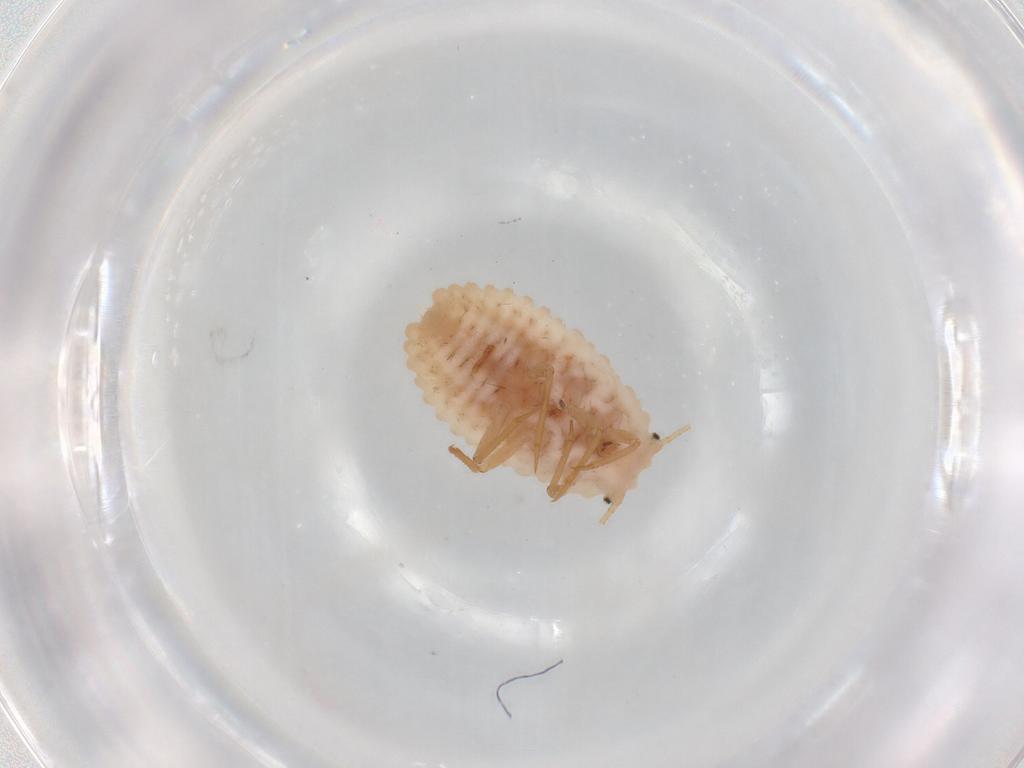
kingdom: Animalia
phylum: Arthropoda
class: Insecta
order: Hemiptera
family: Coccoidea_incertae_sedis
